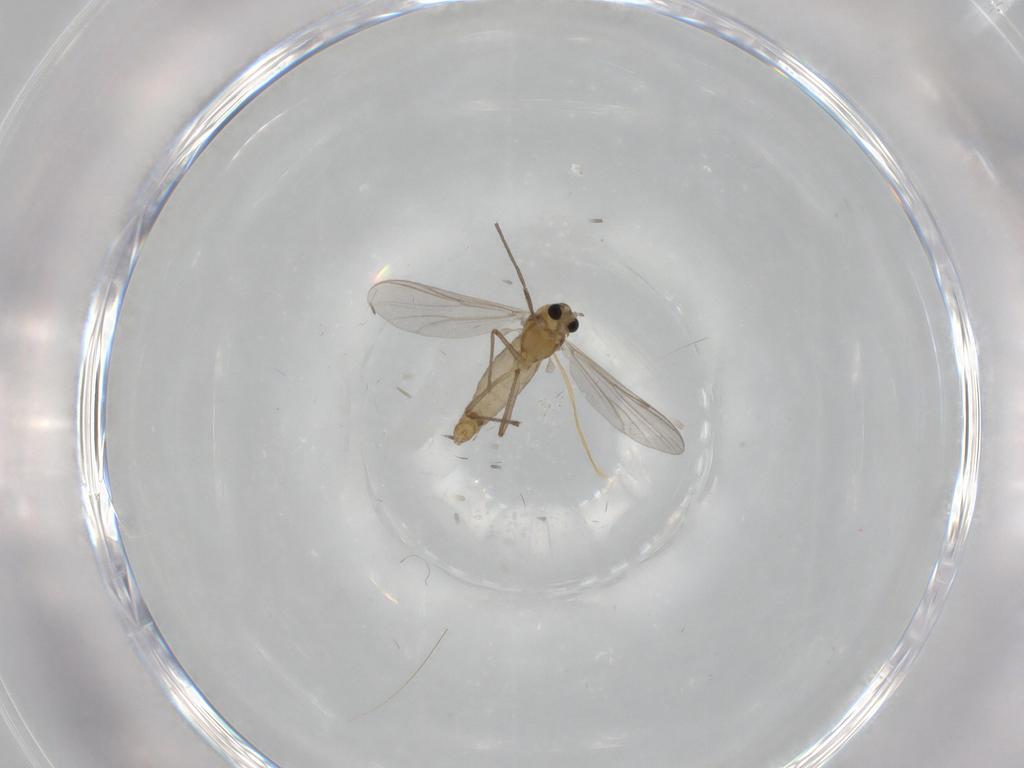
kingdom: Animalia
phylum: Arthropoda
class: Insecta
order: Diptera
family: Chironomidae
